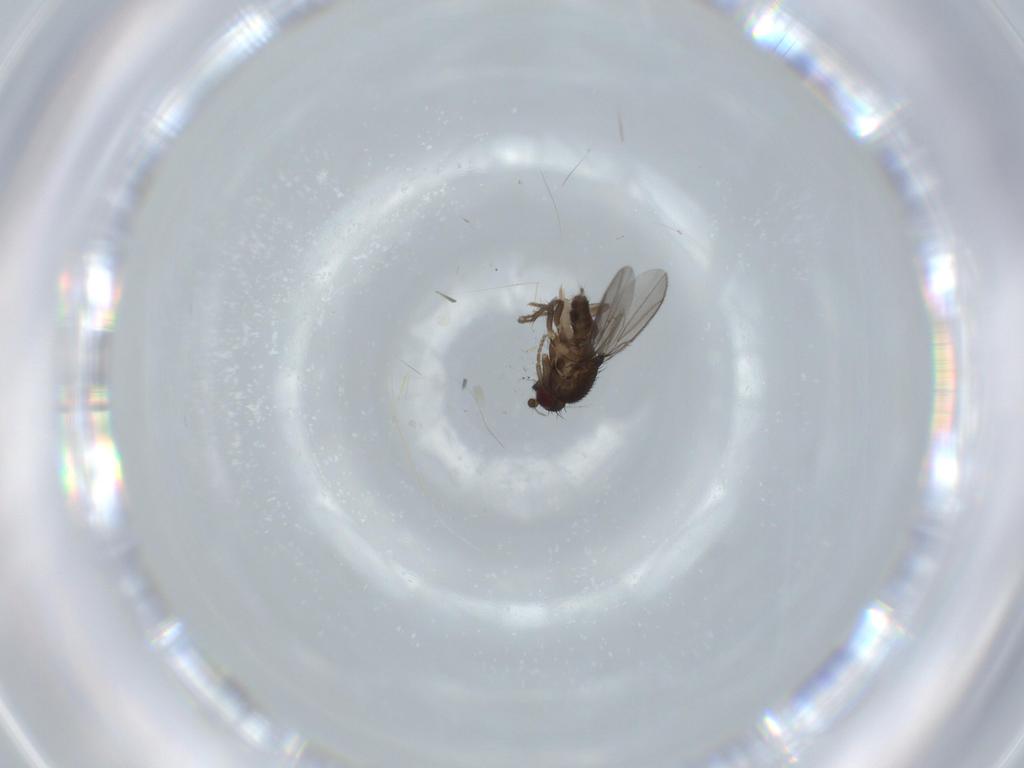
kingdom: Animalia
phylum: Arthropoda
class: Insecta
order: Diptera
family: Sphaeroceridae
